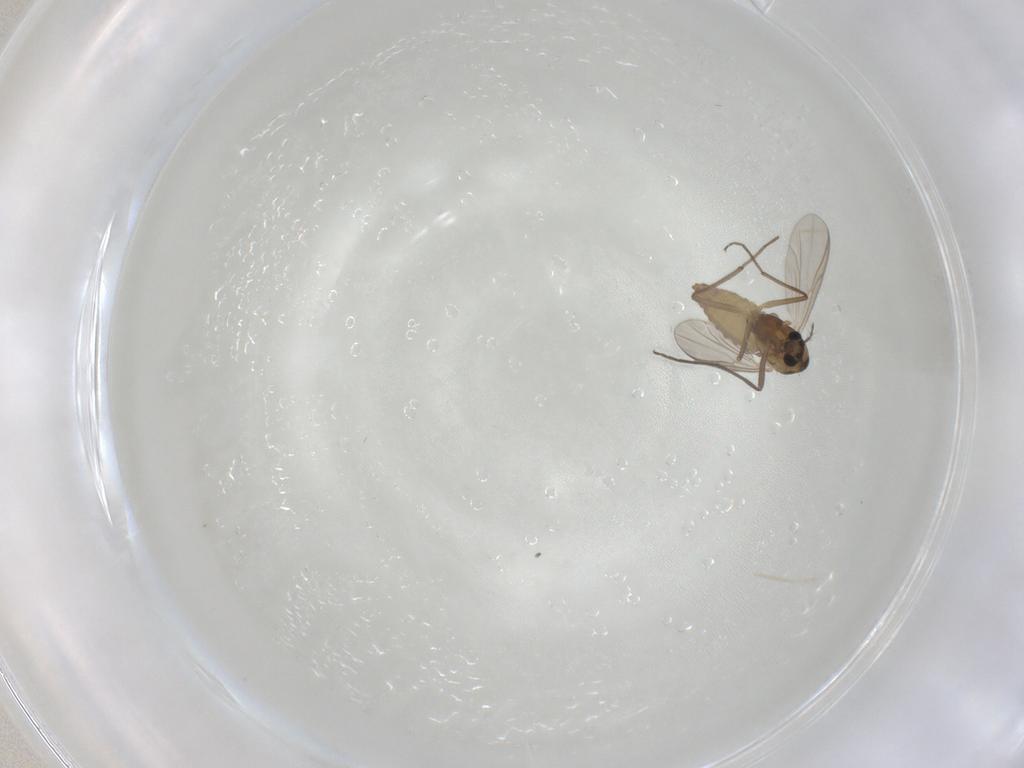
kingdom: Animalia
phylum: Arthropoda
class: Insecta
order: Diptera
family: Chironomidae
